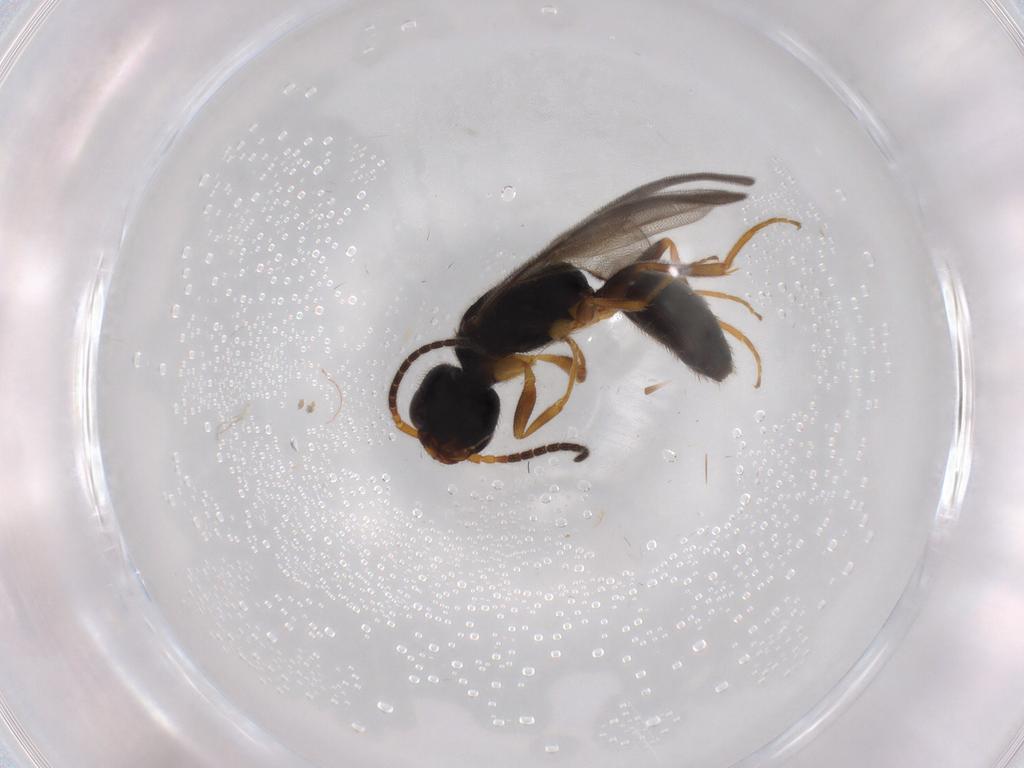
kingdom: Animalia
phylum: Arthropoda
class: Insecta
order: Hymenoptera
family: Bethylidae
